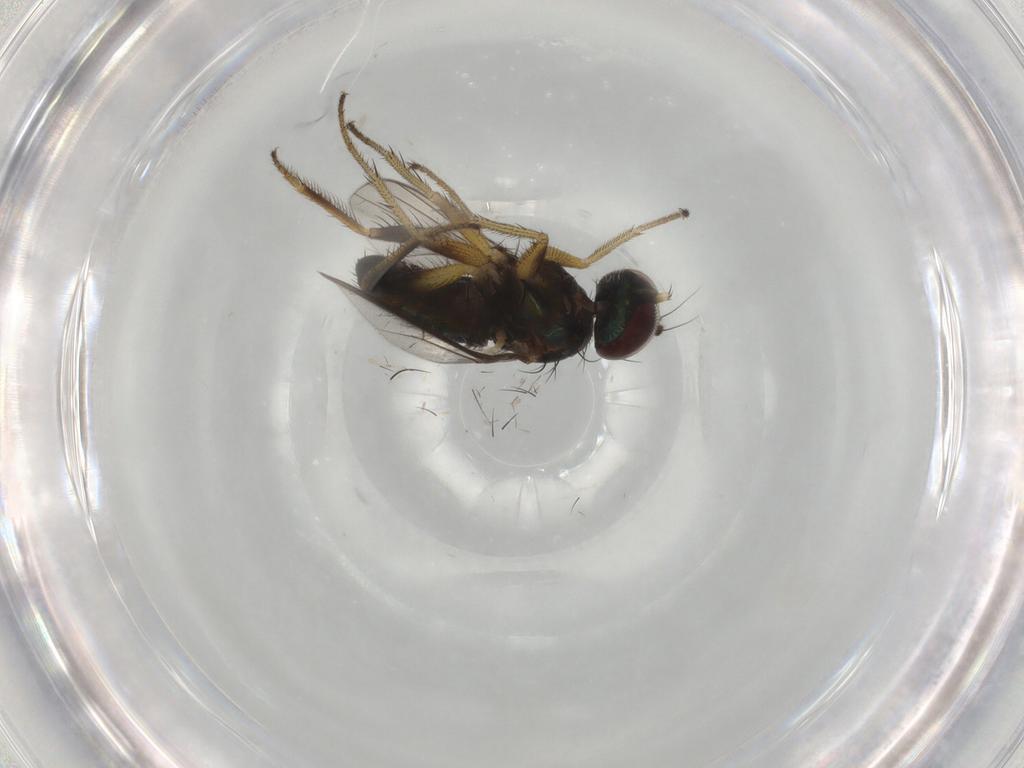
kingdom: Animalia
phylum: Arthropoda
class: Insecta
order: Diptera
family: Dolichopodidae
